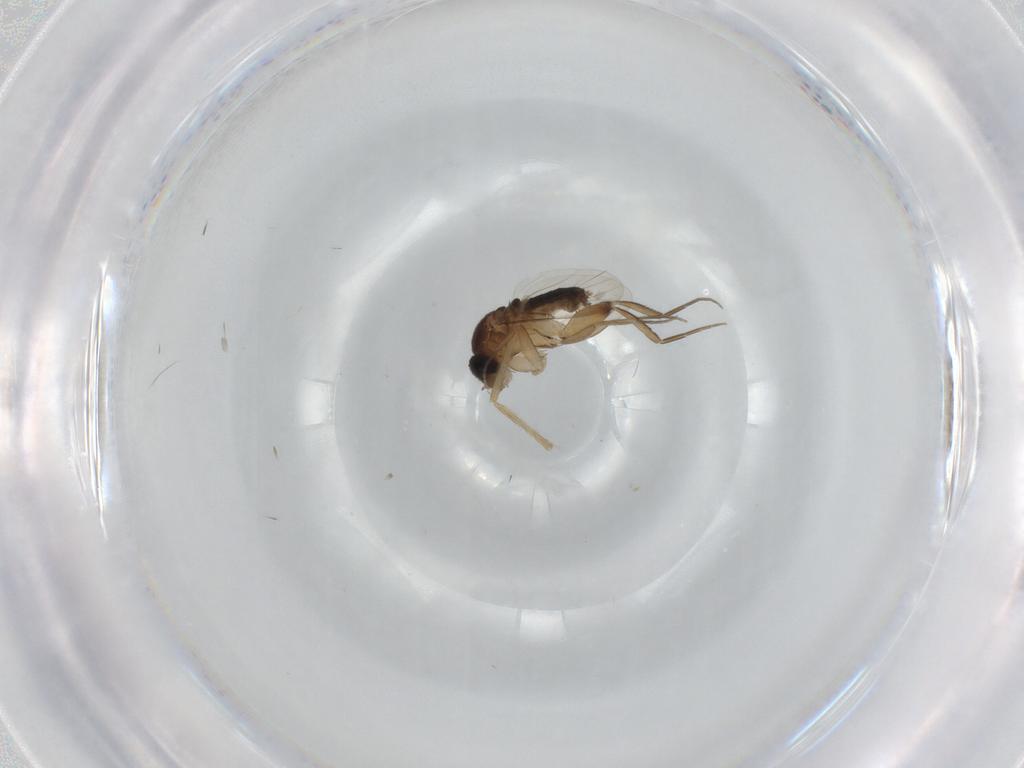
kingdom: Animalia
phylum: Arthropoda
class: Insecta
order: Diptera
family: Phoridae
